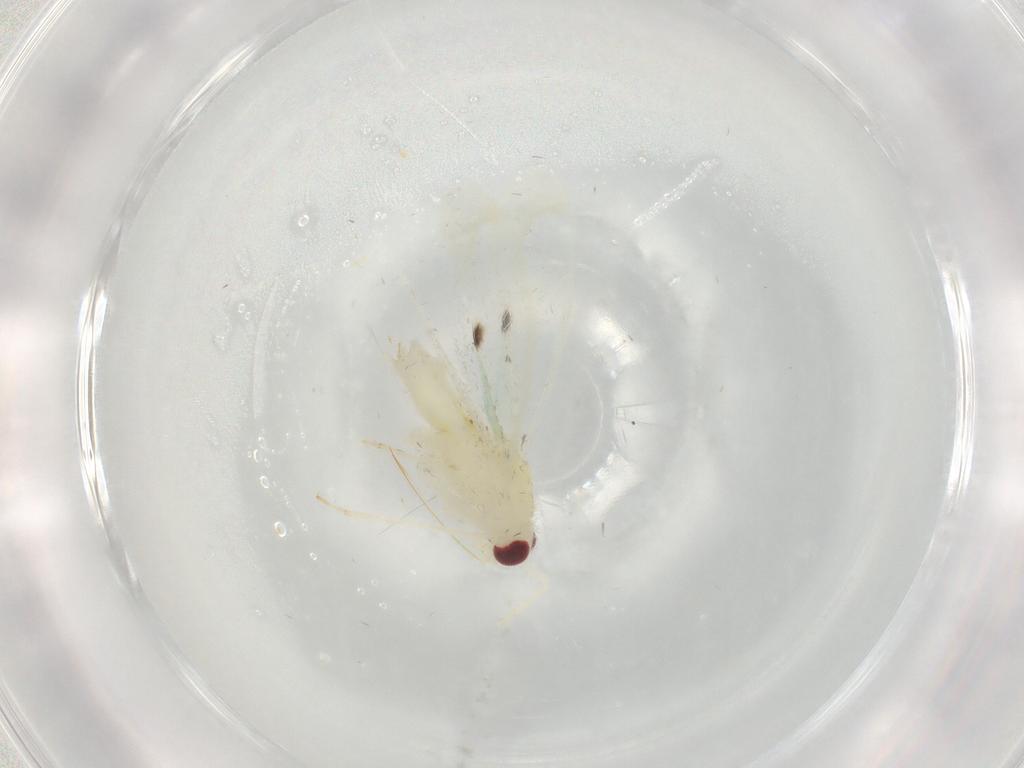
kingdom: Animalia
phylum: Arthropoda
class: Insecta
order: Hemiptera
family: Miridae
